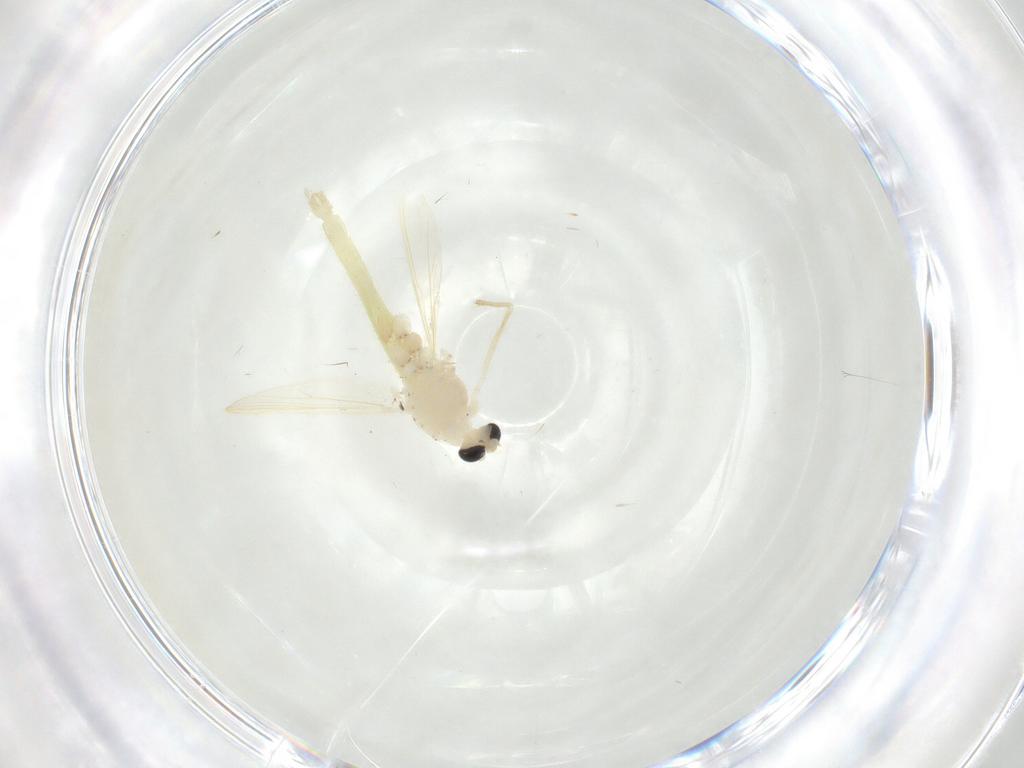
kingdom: Animalia
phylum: Arthropoda
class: Insecta
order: Diptera
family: Chironomidae
